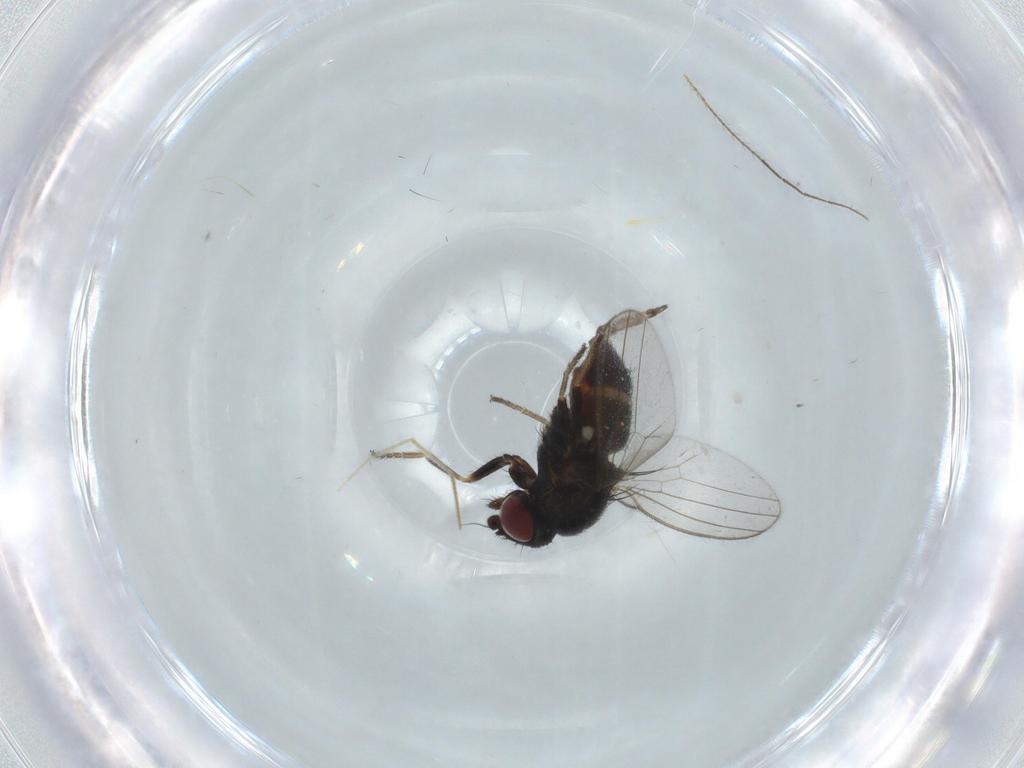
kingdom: Animalia
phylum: Arthropoda
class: Insecta
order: Diptera
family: Milichiidae
